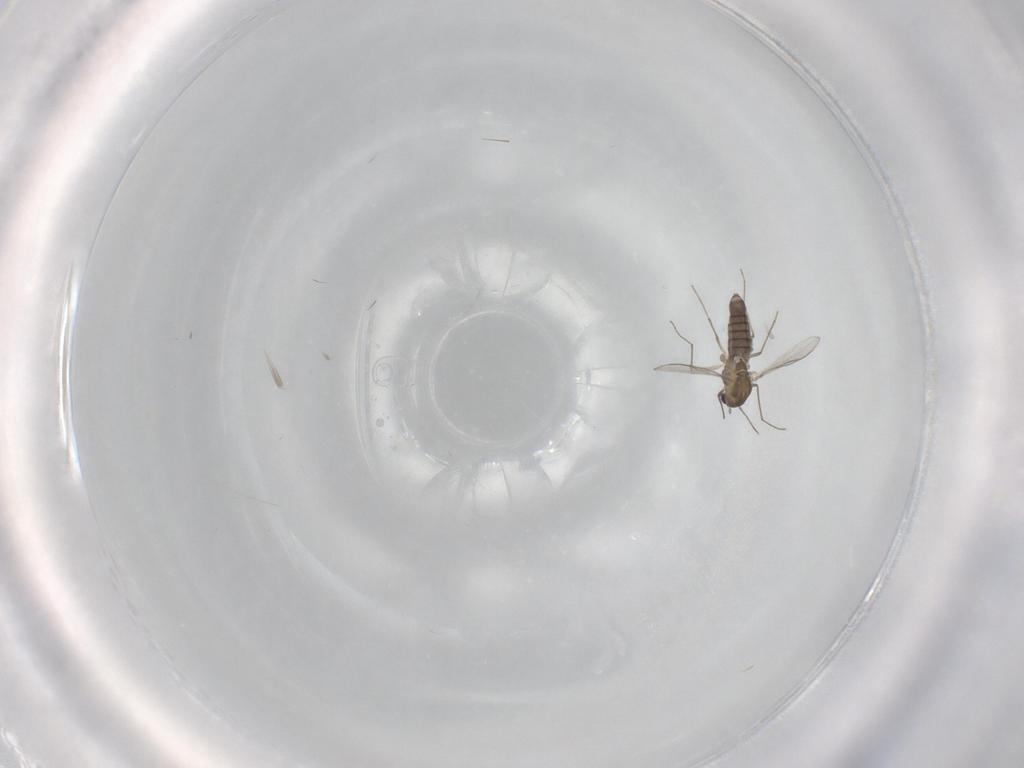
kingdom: Animalia
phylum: Arthropoda
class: Insecta
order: Diptera
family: Chironomidae
